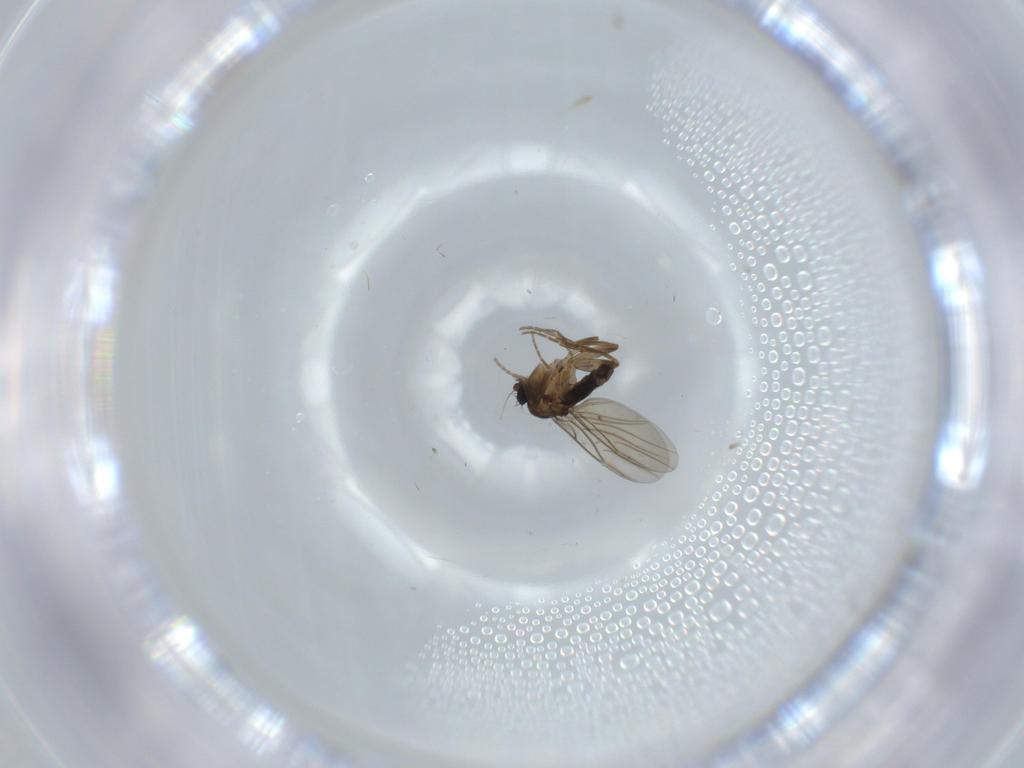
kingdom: Animalia
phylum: Arthropoda
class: Insecta
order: Diptera
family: Phoridae
